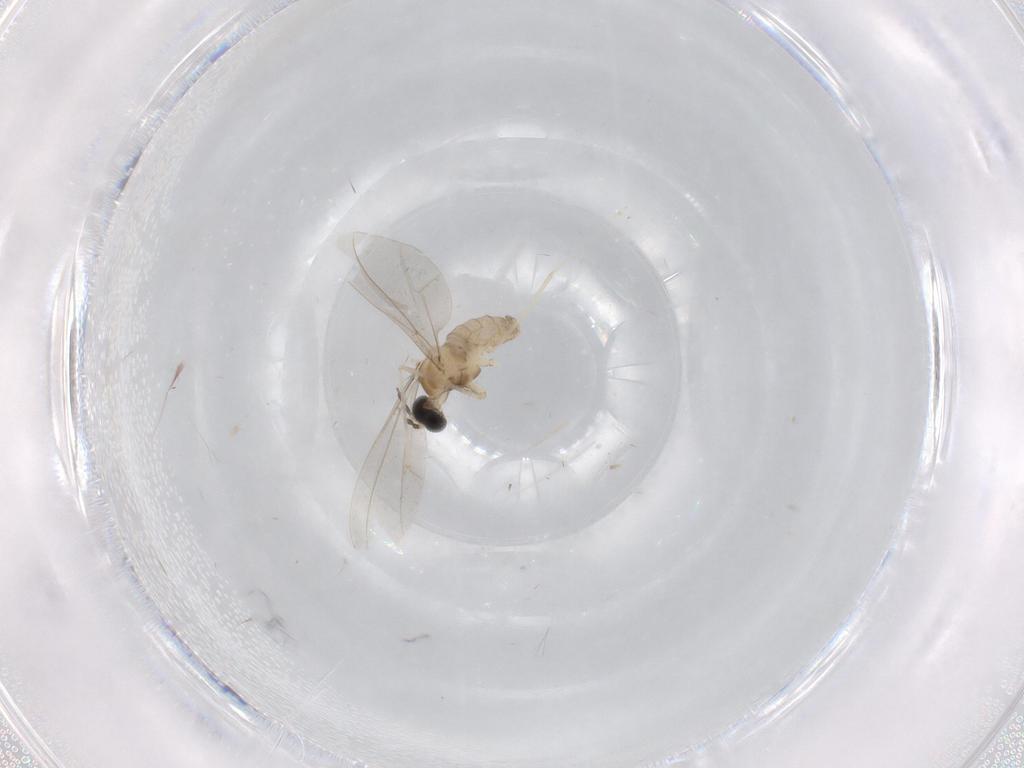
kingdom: Animalia
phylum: Arthropoda
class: Insecta
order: Diptera
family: Cecidomyiidae
